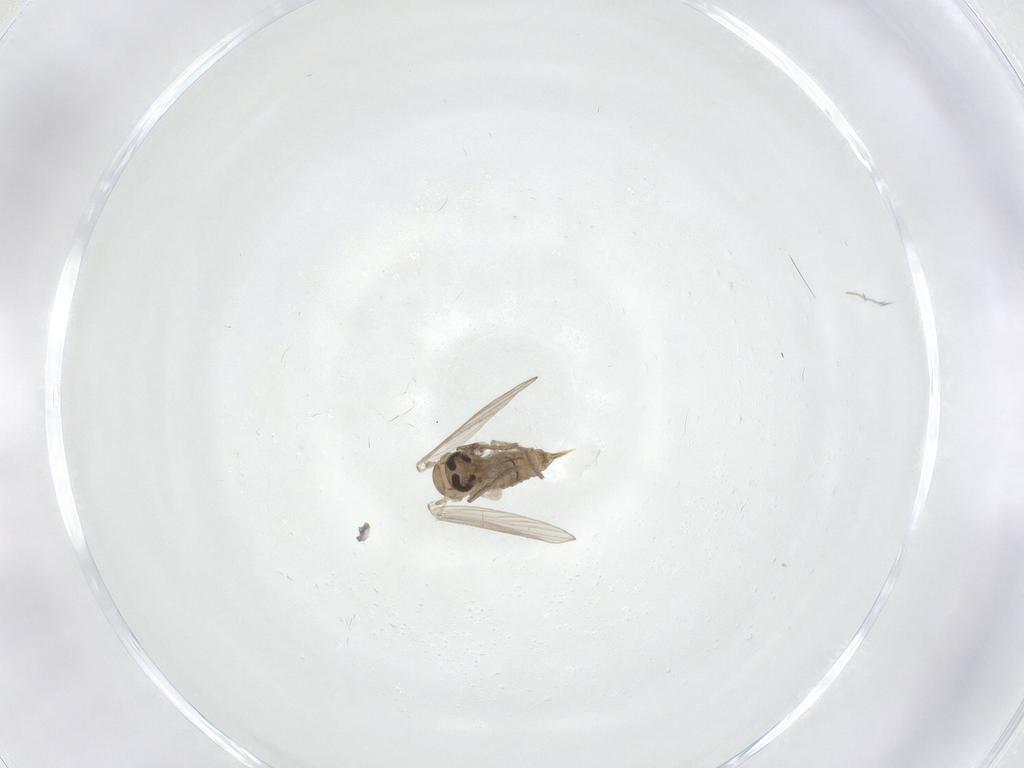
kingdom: Animalia
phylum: Arthropoda
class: Insecta
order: Diptera
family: Psychodidae
